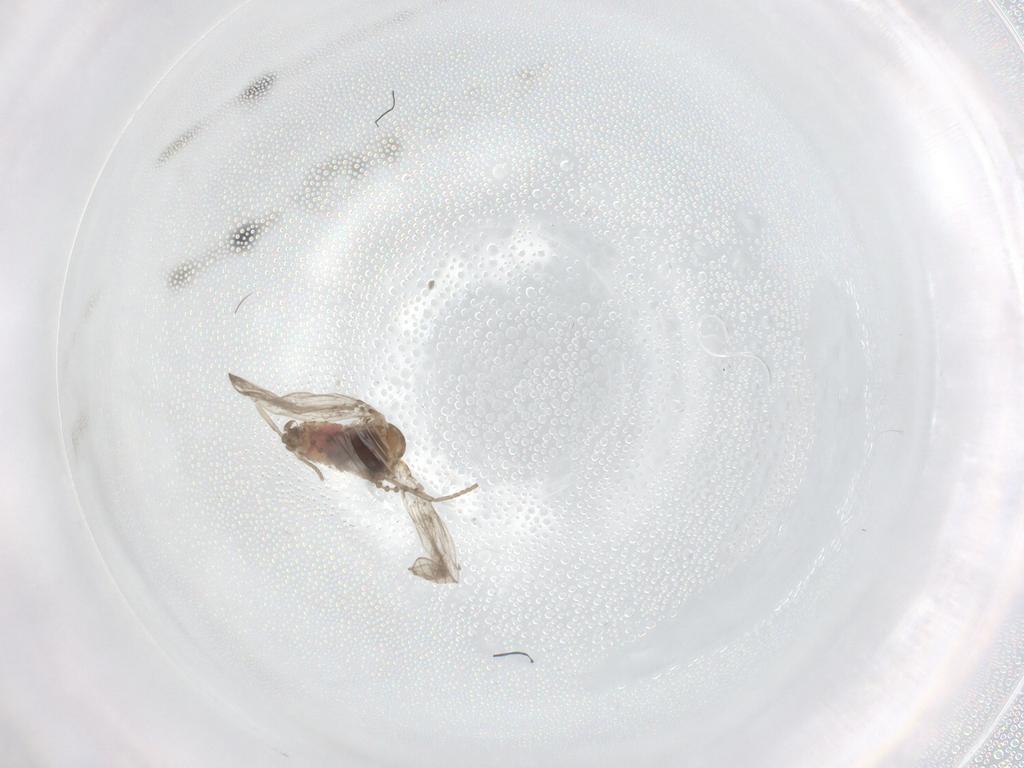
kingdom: Animalia
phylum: Arthropoda
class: Insecta
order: Diptera
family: Psychodidae
